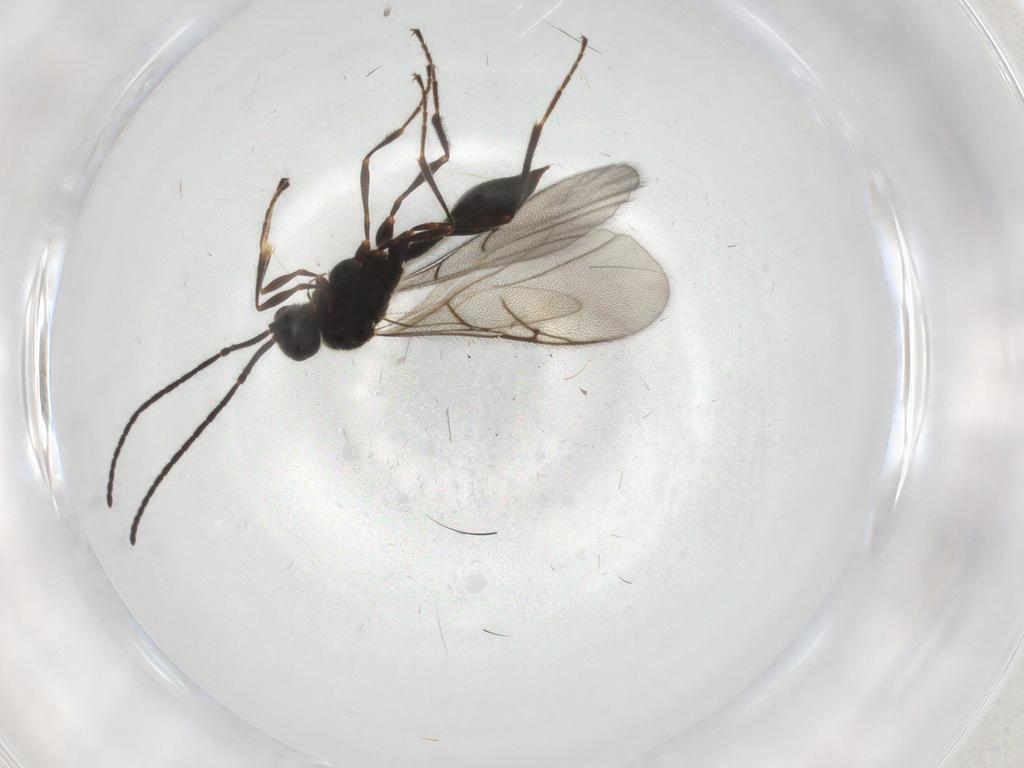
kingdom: Animalia
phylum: Arthropoda
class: Insecta
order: Hymenoptera
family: Diapriidae
